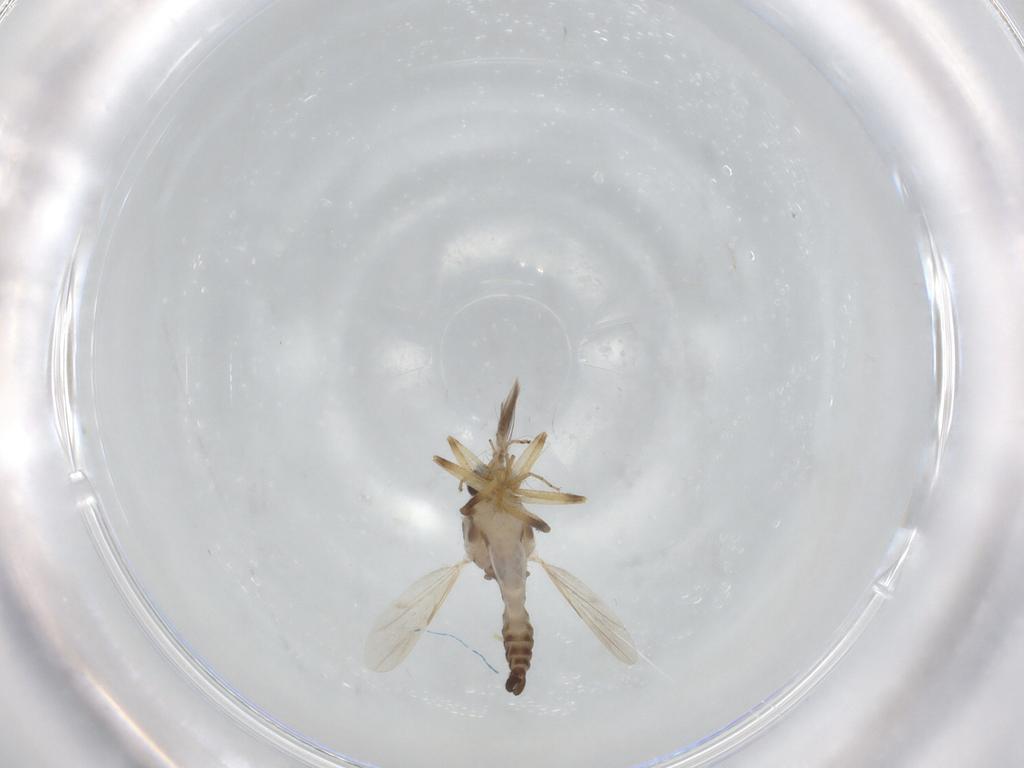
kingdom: Animalia
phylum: Arthropoda
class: Insecta
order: Diptera
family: Ceratopogonidae
